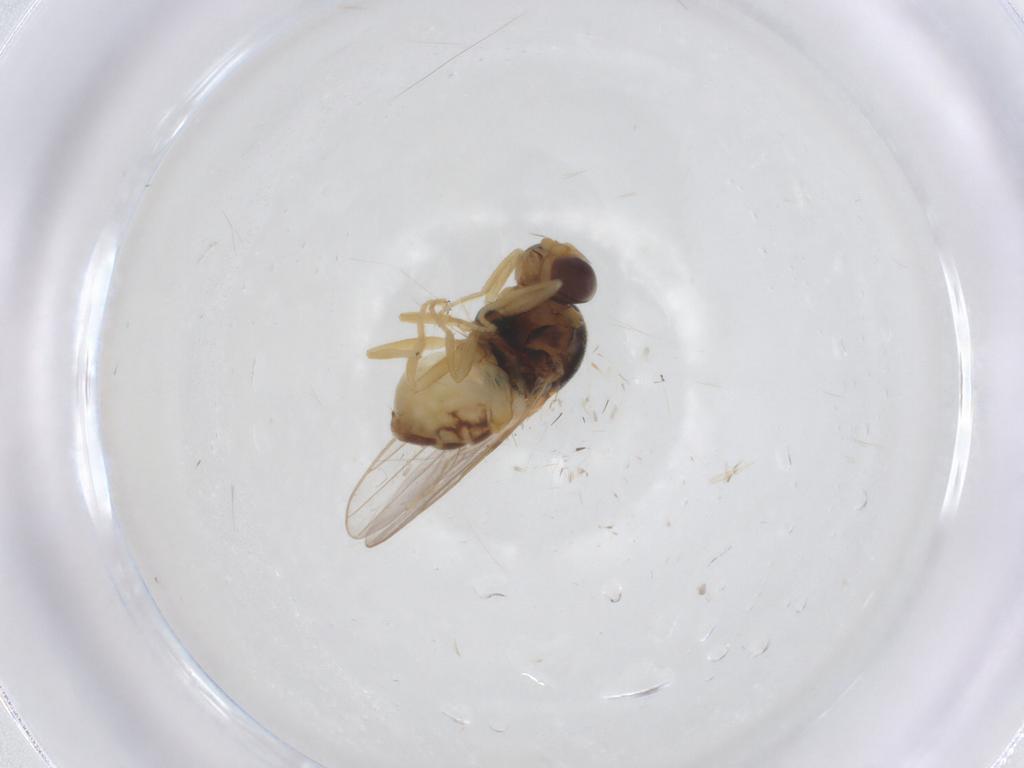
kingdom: Animalia
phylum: Arthropoda
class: Insecta
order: Diptera
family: Chloropidae
